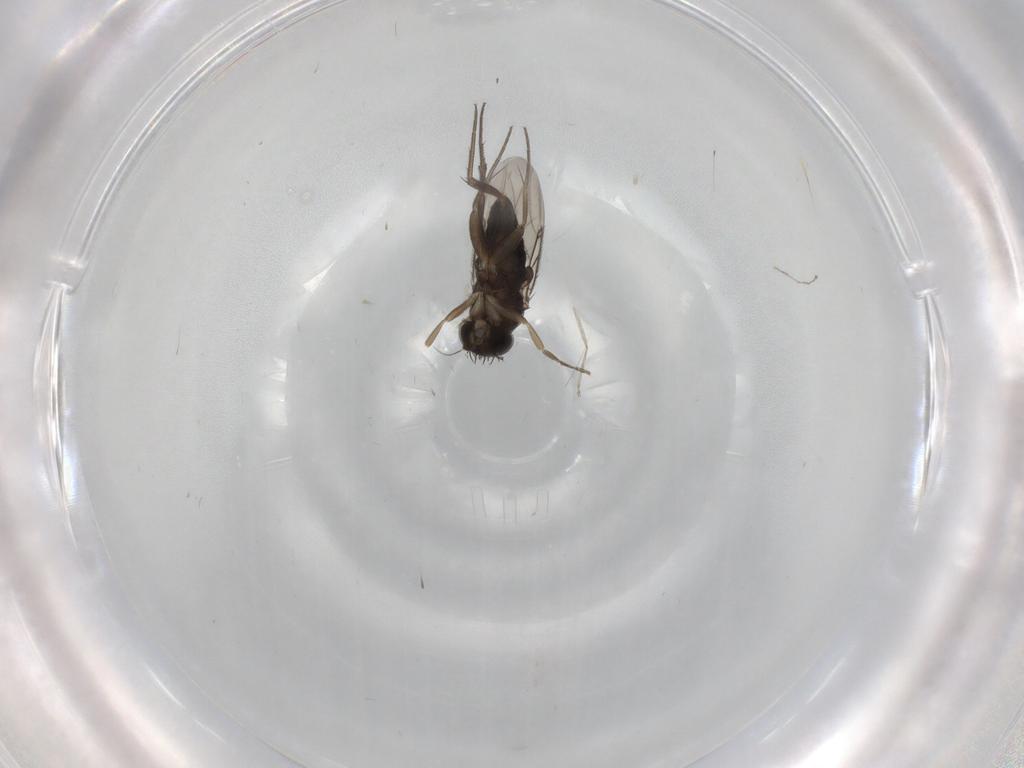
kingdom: Animalia
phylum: Arthropoda
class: Insecta
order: Diptera
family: Phoridae
